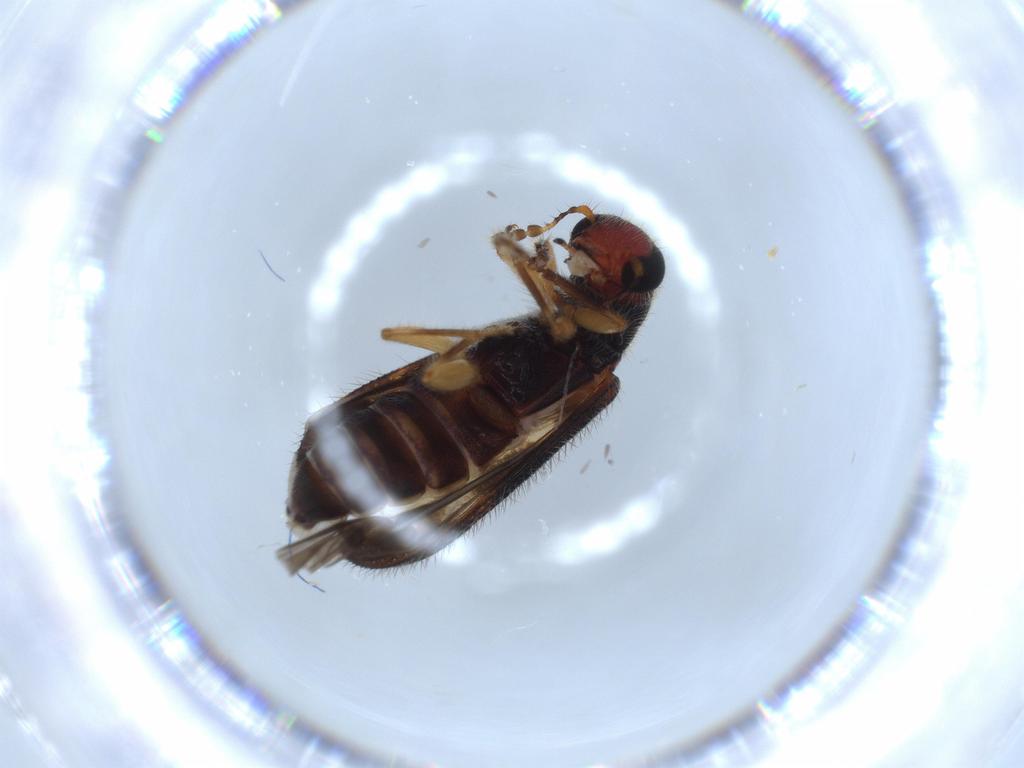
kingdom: Animalia
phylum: Arthropoda
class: Insecta
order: Coleoptera
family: Cleridae
